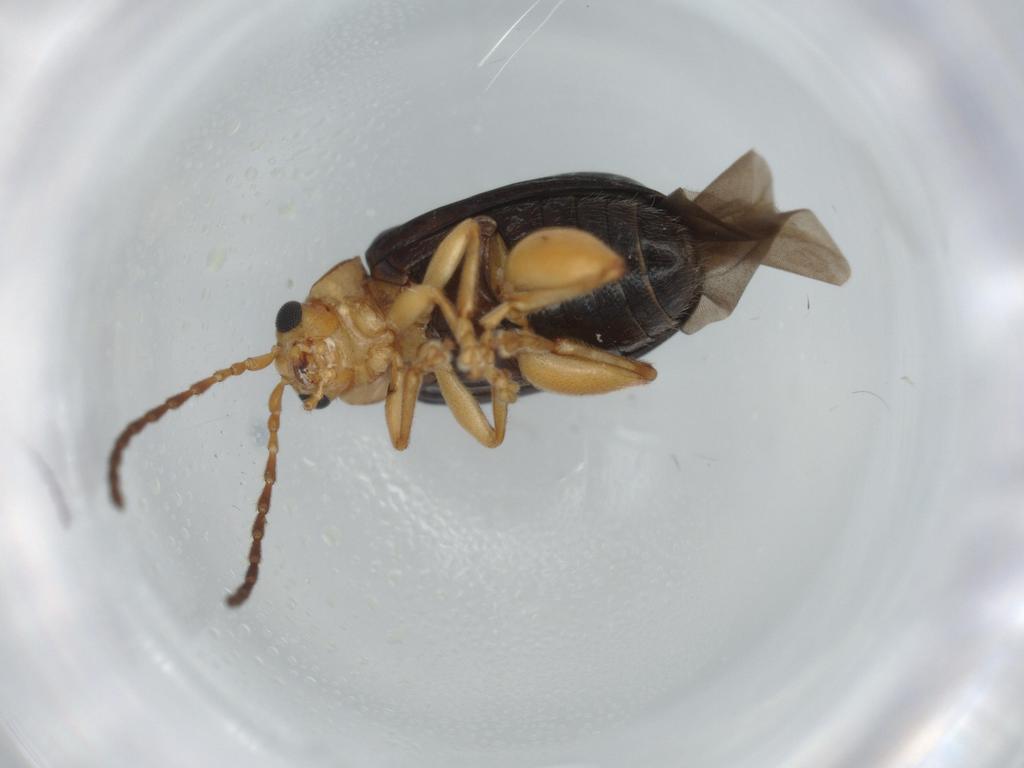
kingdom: Animalia
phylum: Arthropoda
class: Insecta
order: Coleoptera
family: Chrysomelidae
